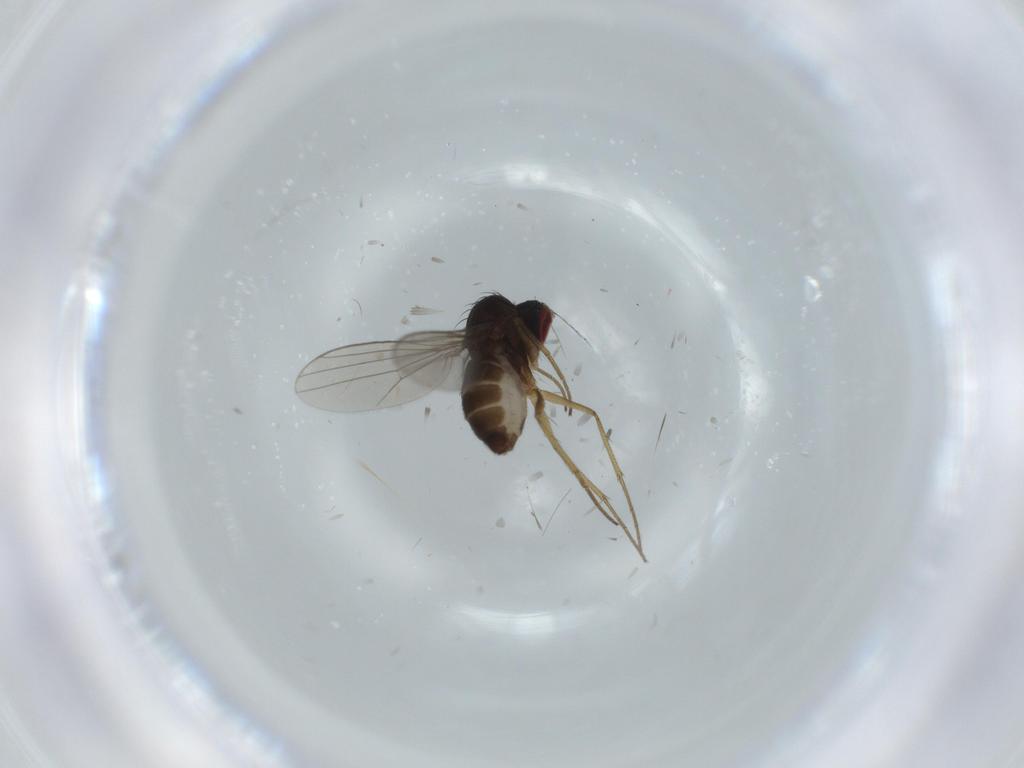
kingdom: Animalia
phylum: Arthropoda
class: Insecta
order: Diptera
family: Dolichopodidae
